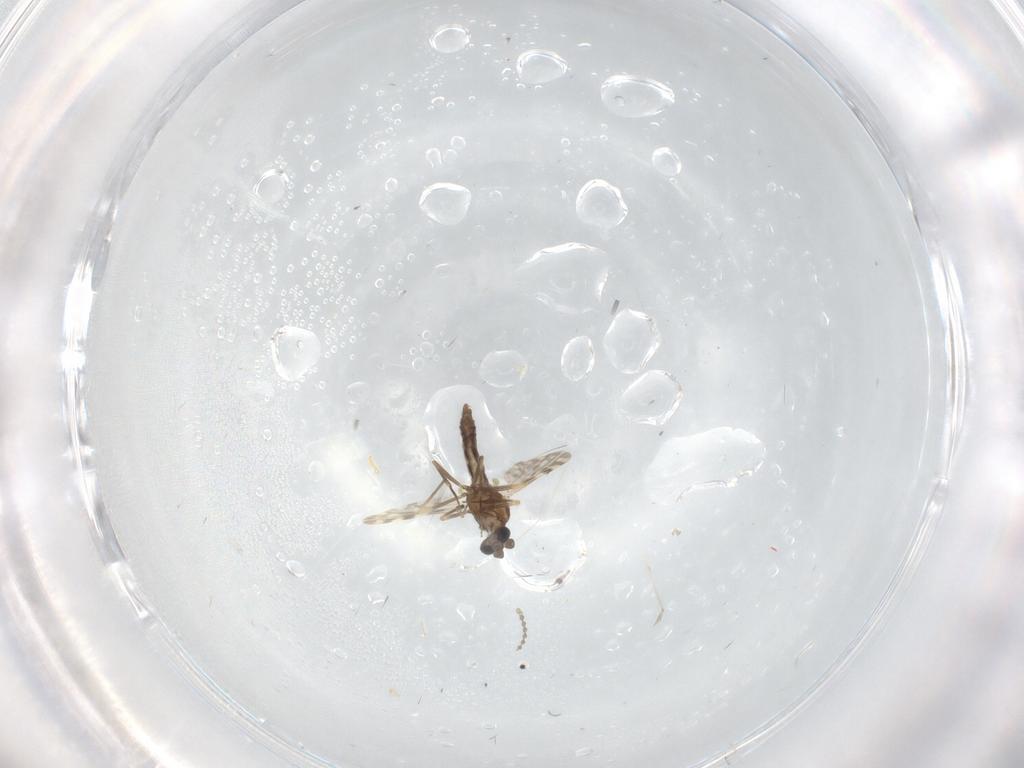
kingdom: Animalia
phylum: Arthropoda
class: Insecta
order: Diptera
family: Ceratopogonidae
